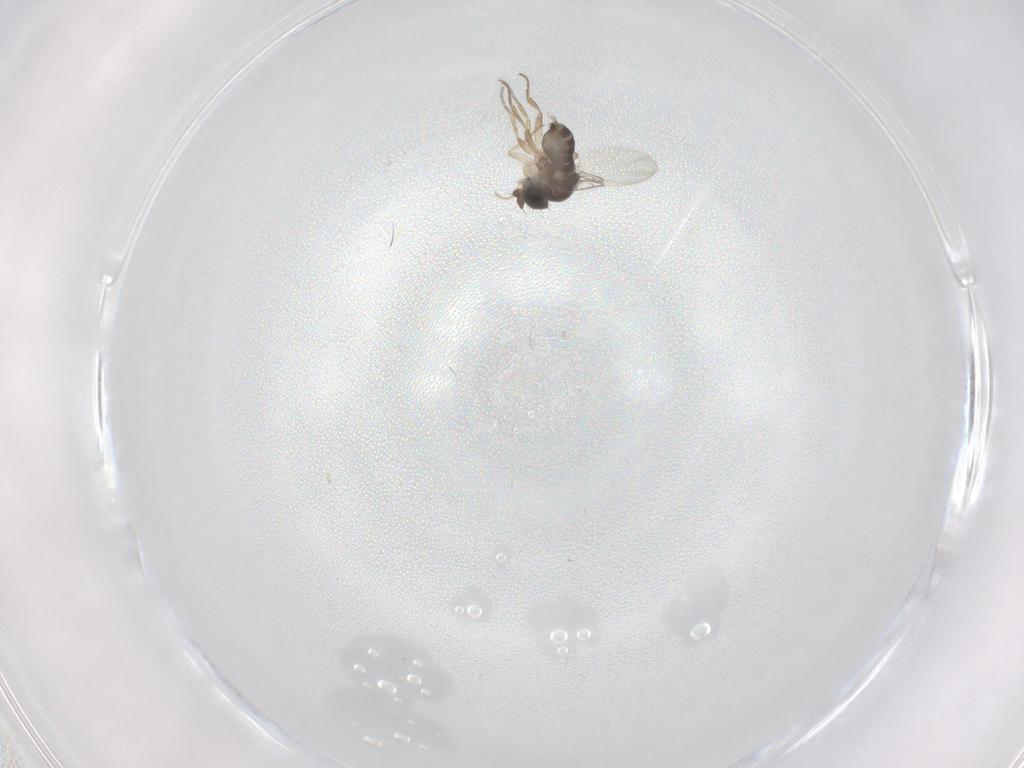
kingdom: Animalia
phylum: Arthropoda
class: Insecta
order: Diptera
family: Phoridae
